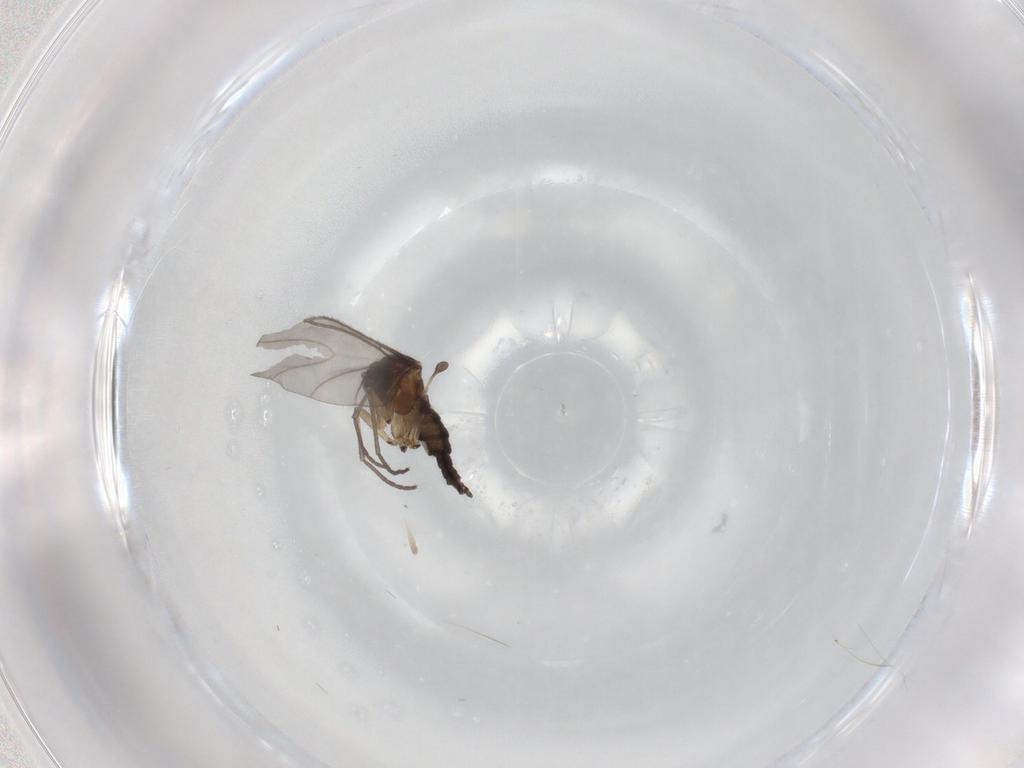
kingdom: Animalia
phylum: Arthropoda
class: Insecta
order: Diptera
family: Sciaridae
